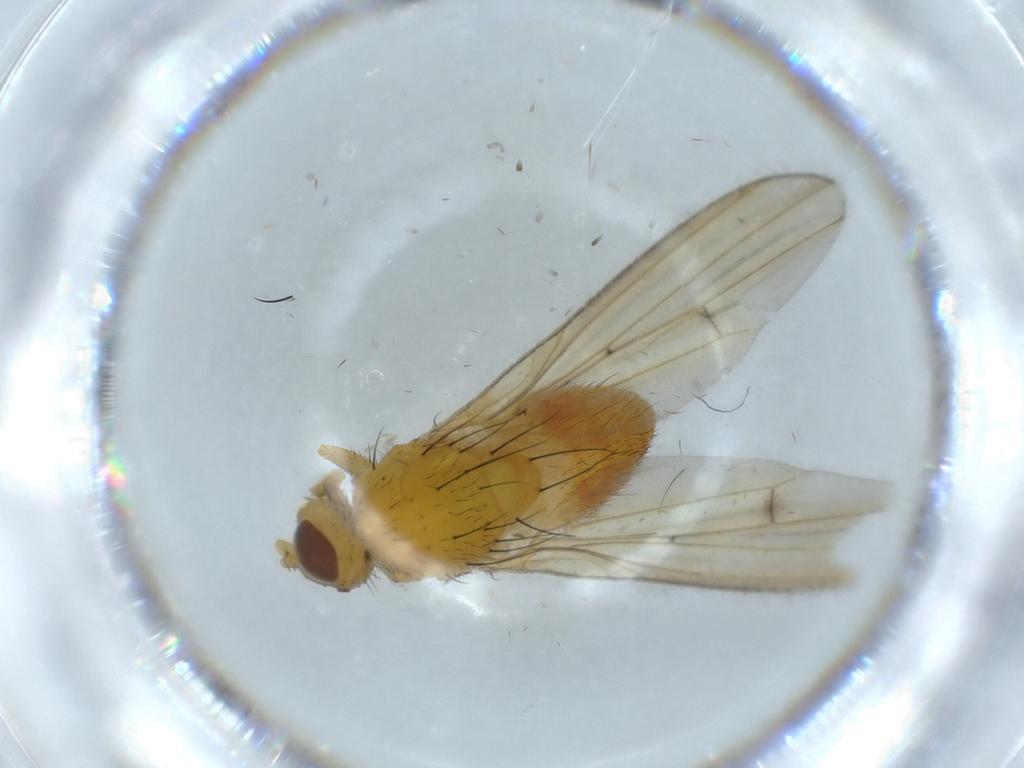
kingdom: Animalia
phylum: Arthropoda
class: Insecta
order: Diptera
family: Lauxaniidae
